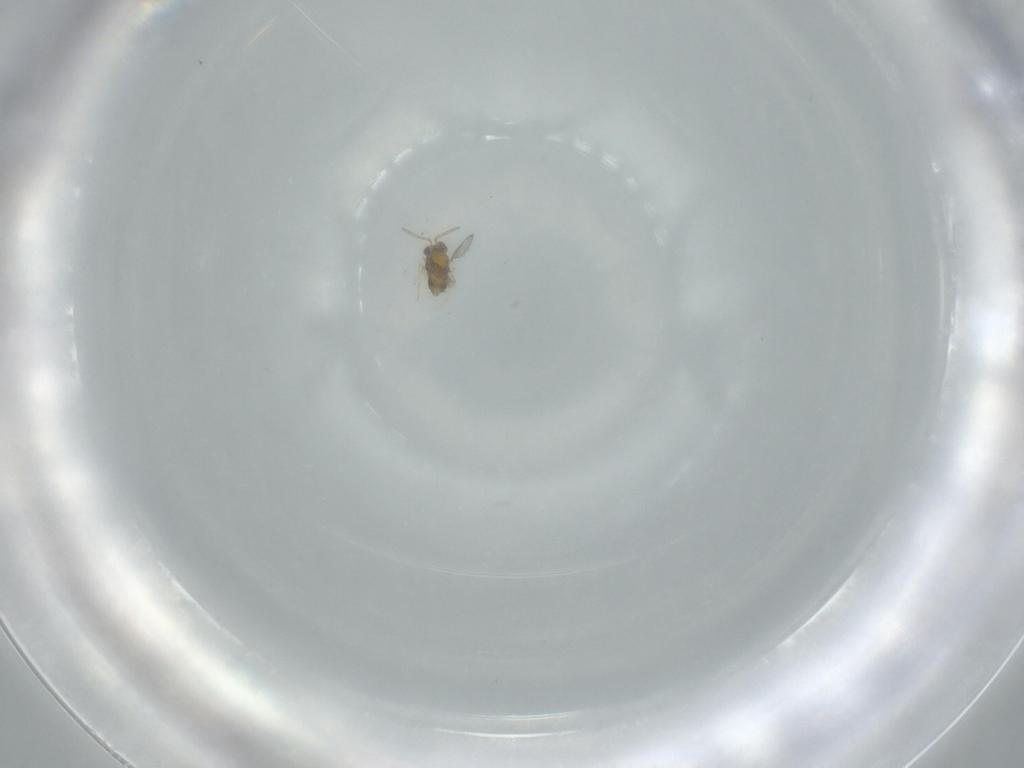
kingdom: Animalia
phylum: Arthropoda
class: Insecta
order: Hymenoptera
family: Aphelinidae
